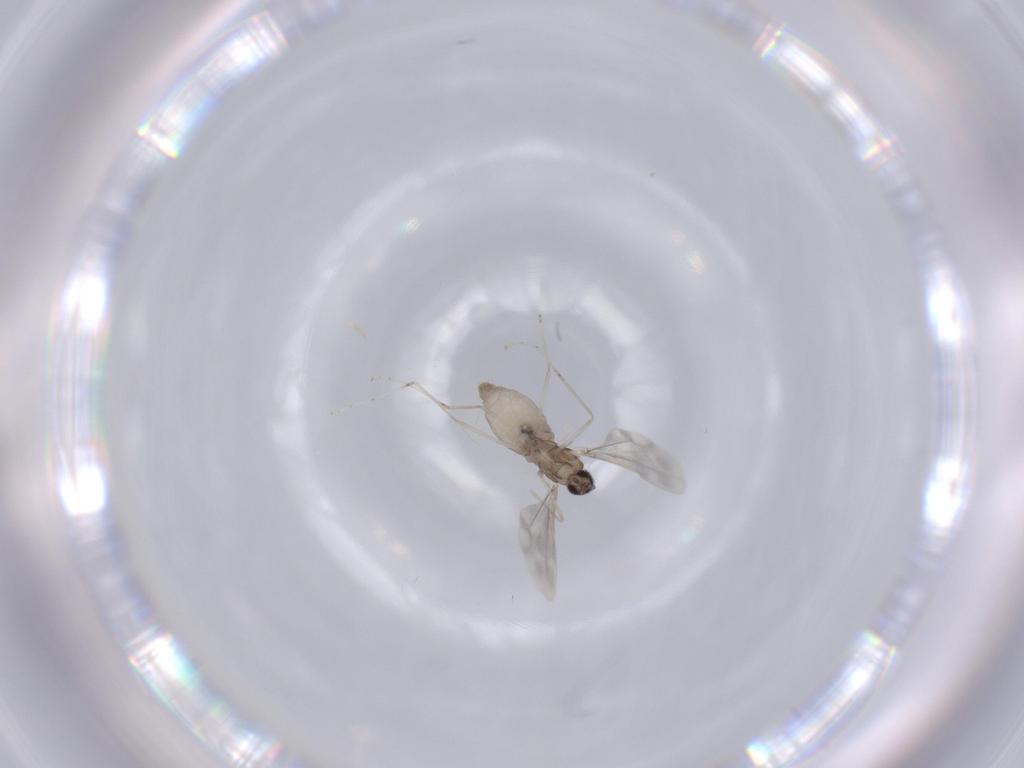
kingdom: Animalia
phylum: Arthropoda
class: Insecta
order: Diptera
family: Cecidomyiidae
